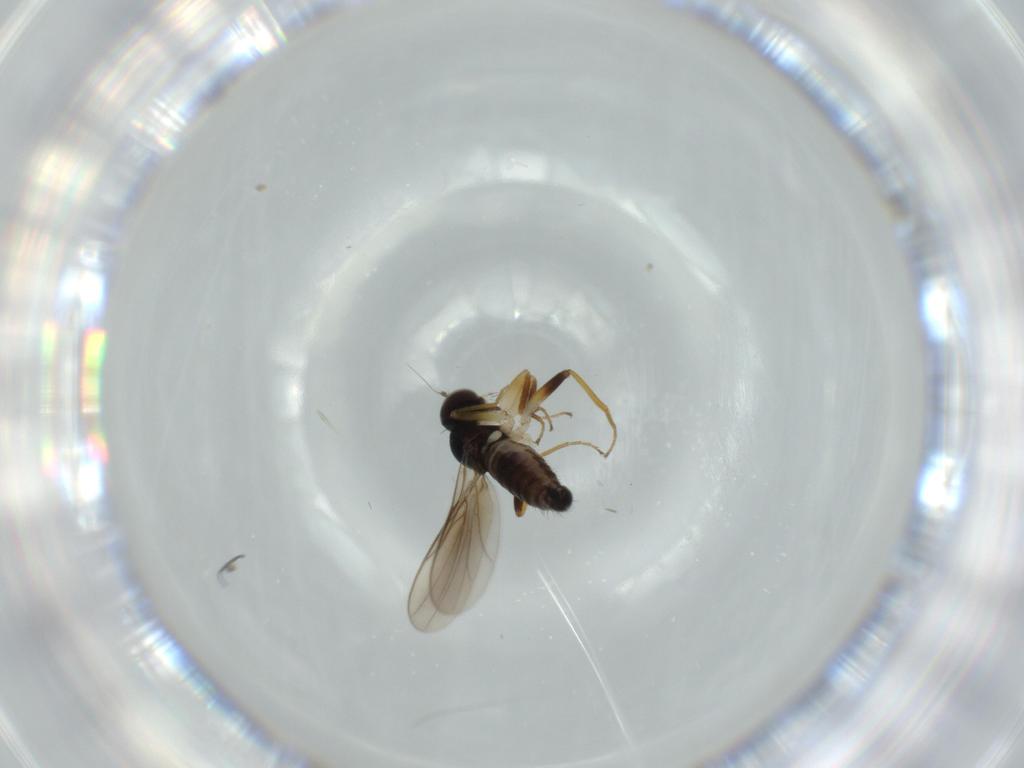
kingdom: Animalia
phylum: Arthropoda
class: Insecta
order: Diptera
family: Hybotidae
